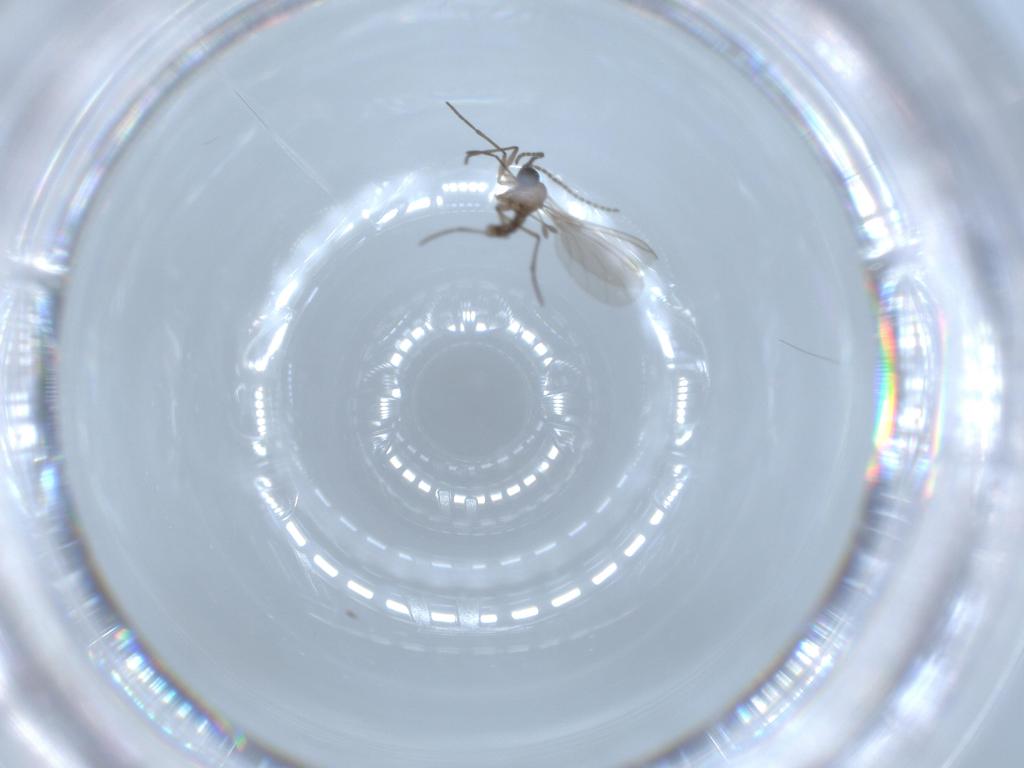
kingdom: Animalia
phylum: Arthropoda
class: Insecta
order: Diptera
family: Sciaridae
